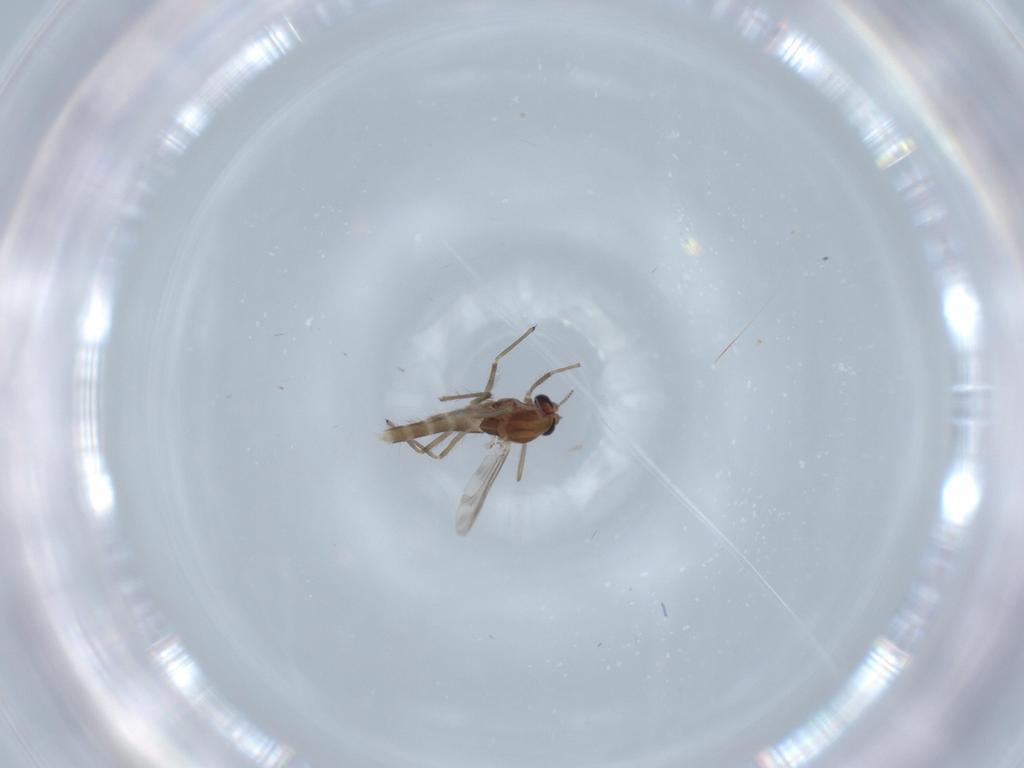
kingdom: Animalia
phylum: Arthropoda
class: Insecta
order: Diptera
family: Chironomidae
